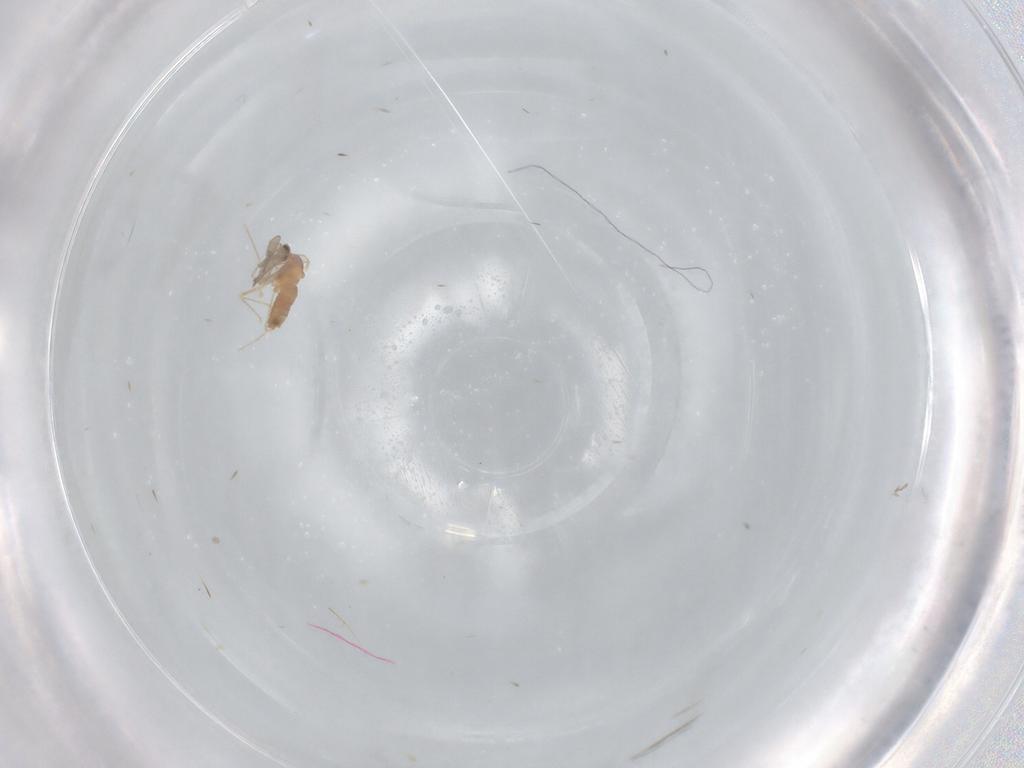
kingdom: Animalia
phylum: Arthropoda
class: Insecta
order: Diptera
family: Cecidomyiidae
